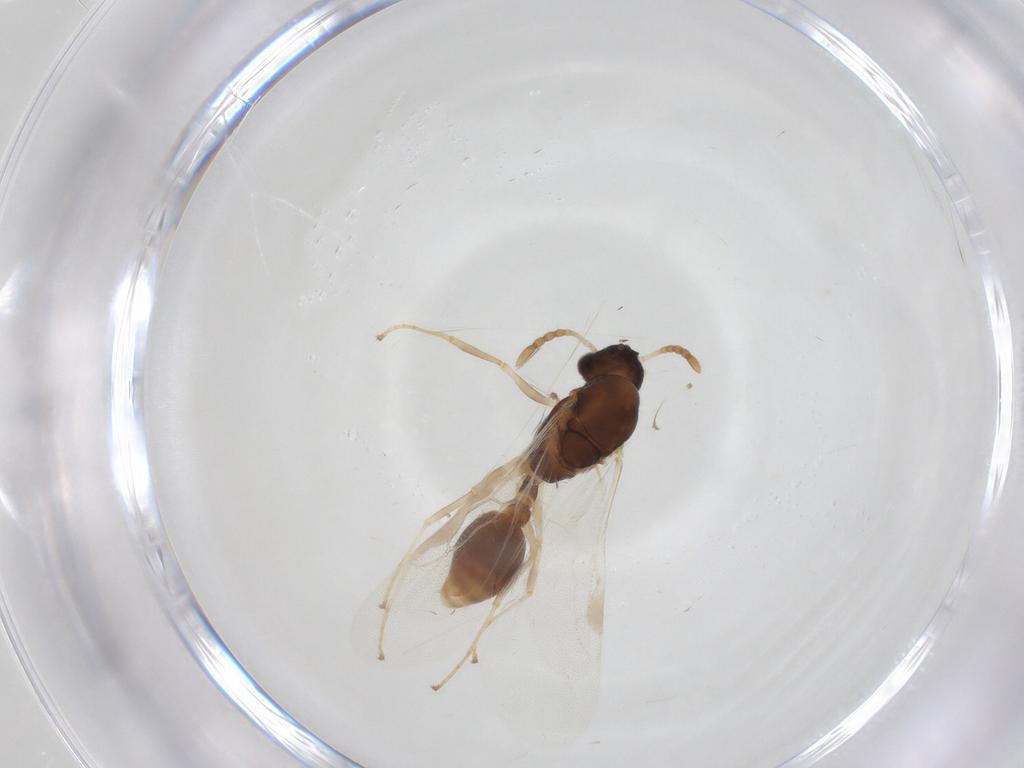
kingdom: Animalia
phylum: Arthropoda
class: Insecta
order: Hymenoptera
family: Formicidae
